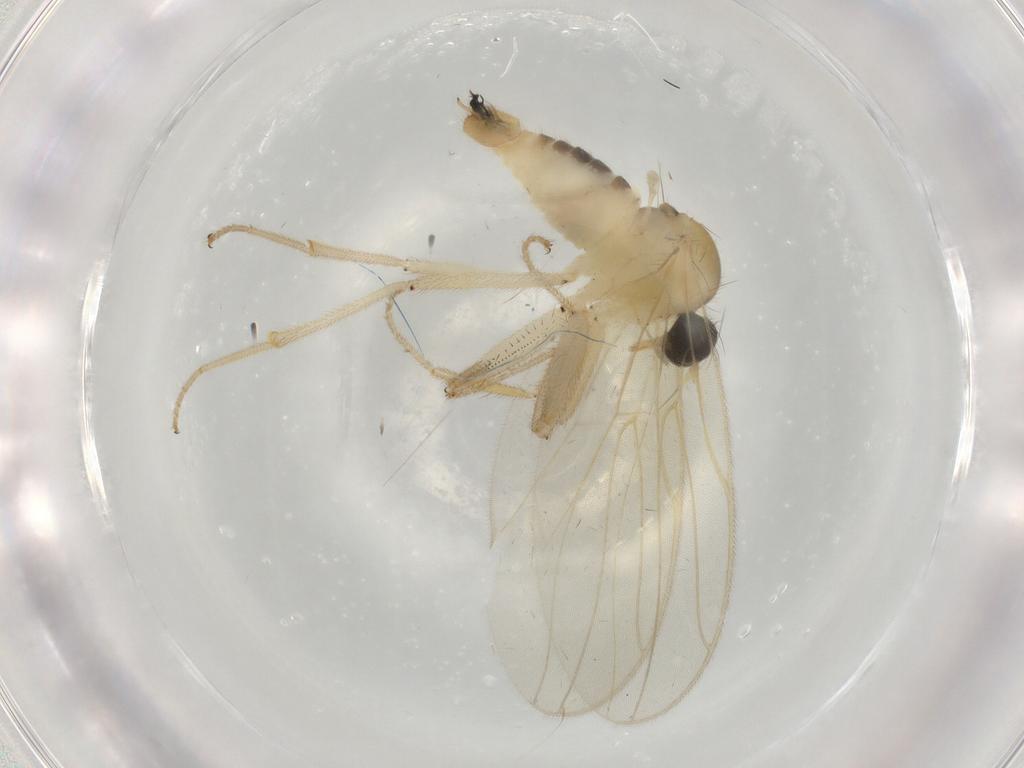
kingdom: Animalia
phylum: Arthropoda
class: Insecta
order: Diptera
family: Hybotidae
